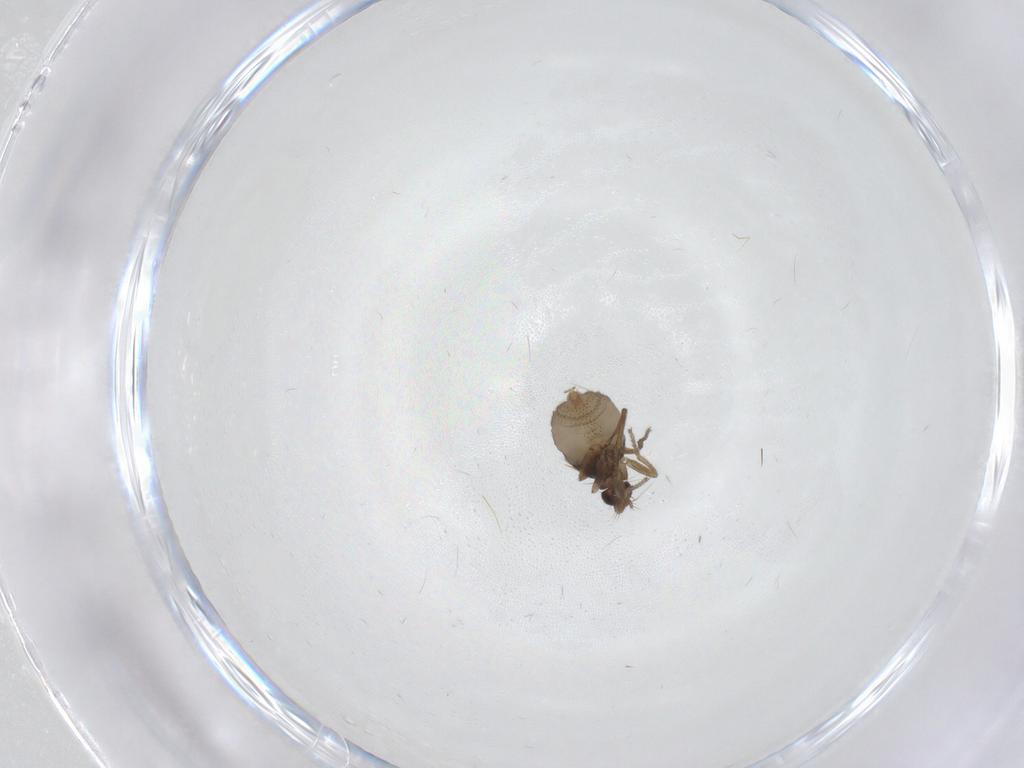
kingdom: Animalia
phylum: Arthropoda
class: Insecta
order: Diptera
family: Phoridae
